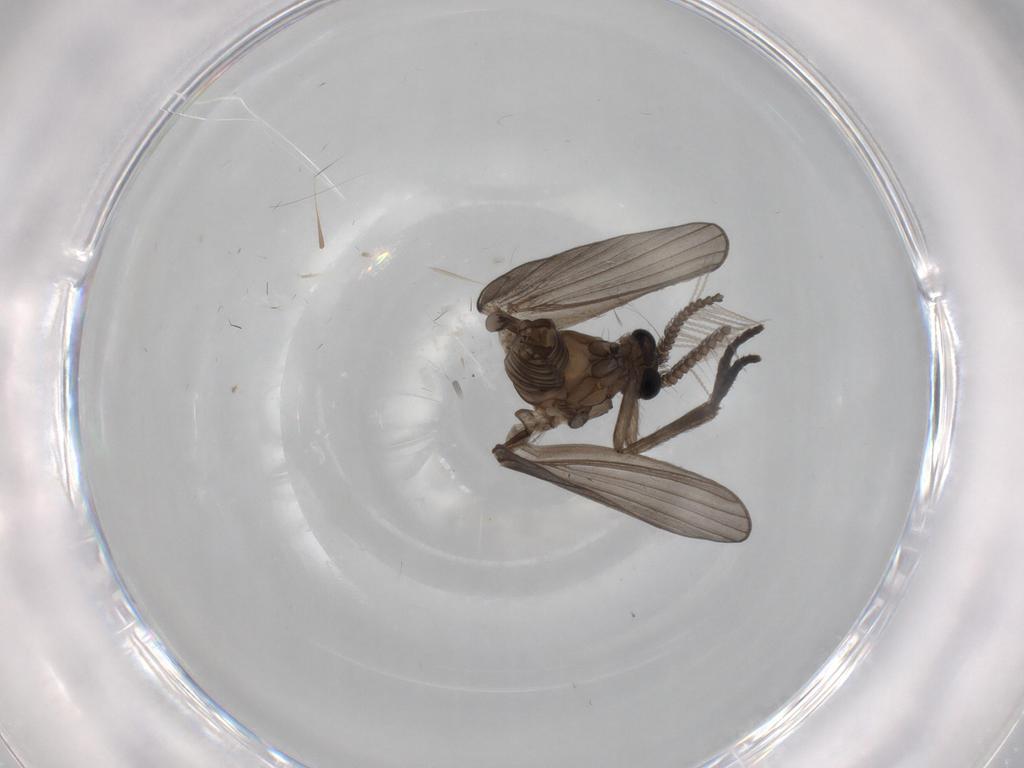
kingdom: Animalia
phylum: Arthropoda
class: Insecta
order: Diptera
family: Psychodidae
